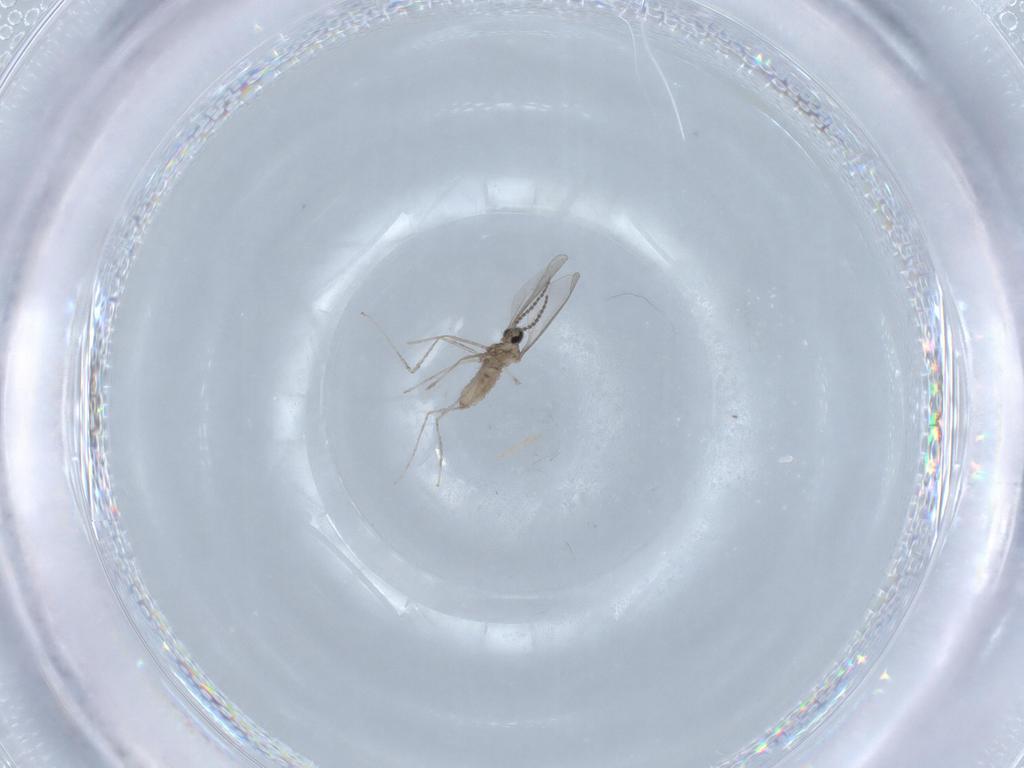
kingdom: Animalia
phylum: Arthropoda
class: Insecta
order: Diptera
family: Cecidomyiidae
